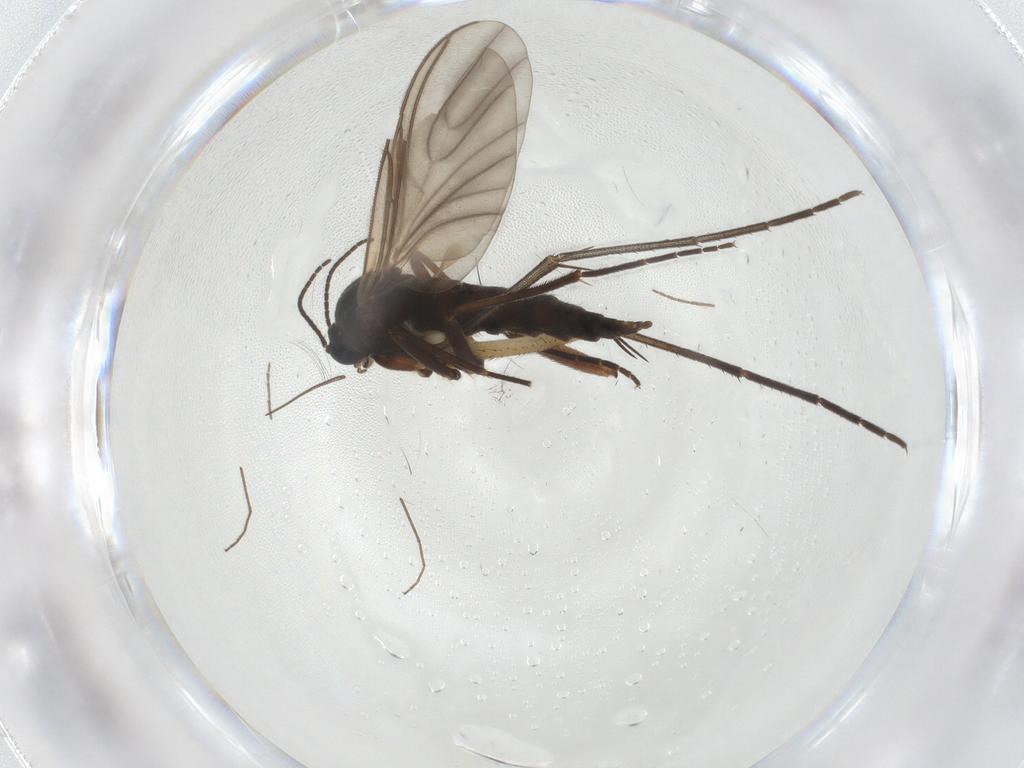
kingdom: Animalia
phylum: Arthropoda
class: Insecta
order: Diptera
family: Sciaridae
